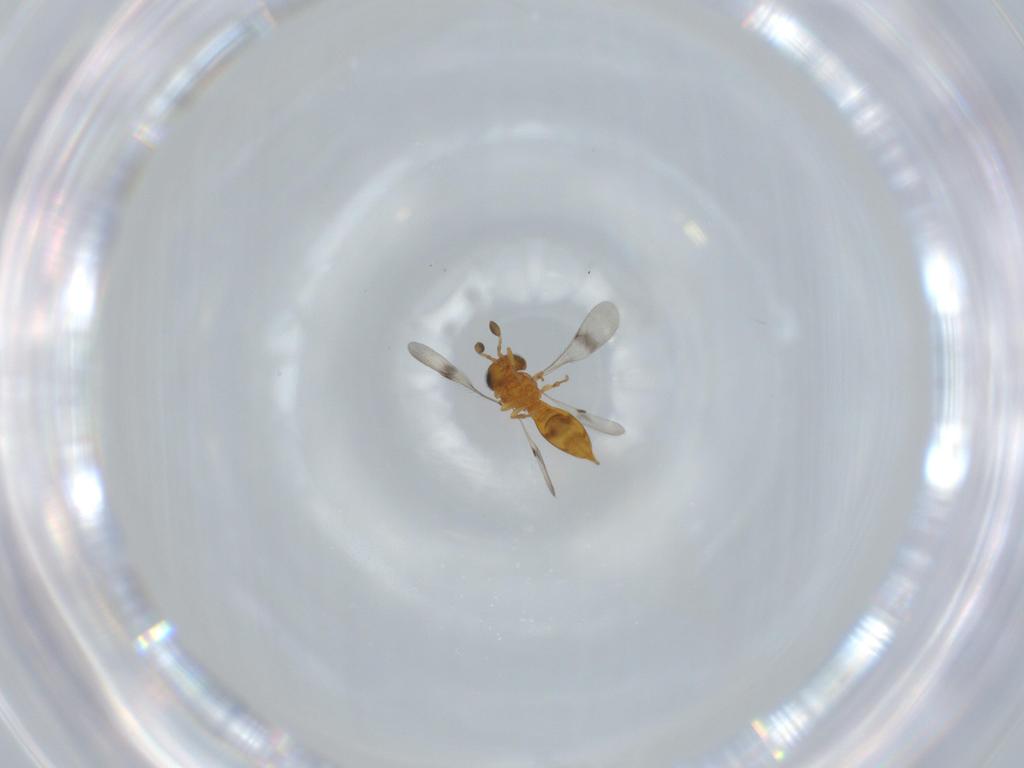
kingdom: Animalia
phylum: Arthropoda
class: Insecta
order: Hymenoptera
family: Scelionidae
